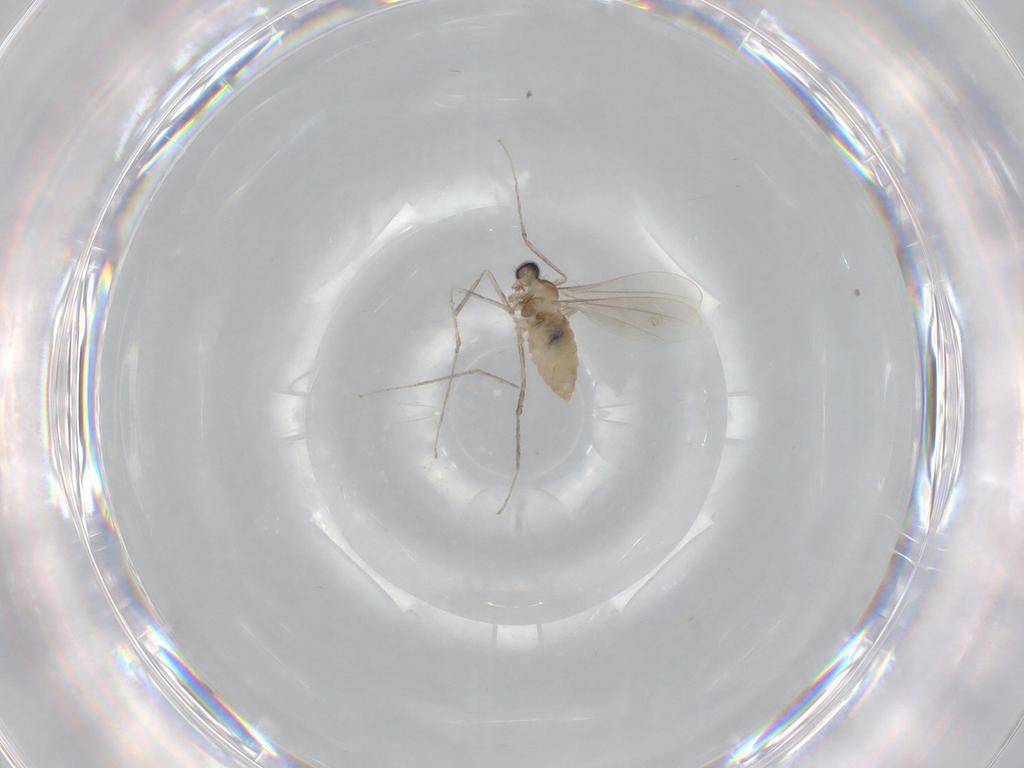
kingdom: Animalia
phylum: Arthropoda
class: Insecta
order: Diptera
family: Cecidomyiidae
